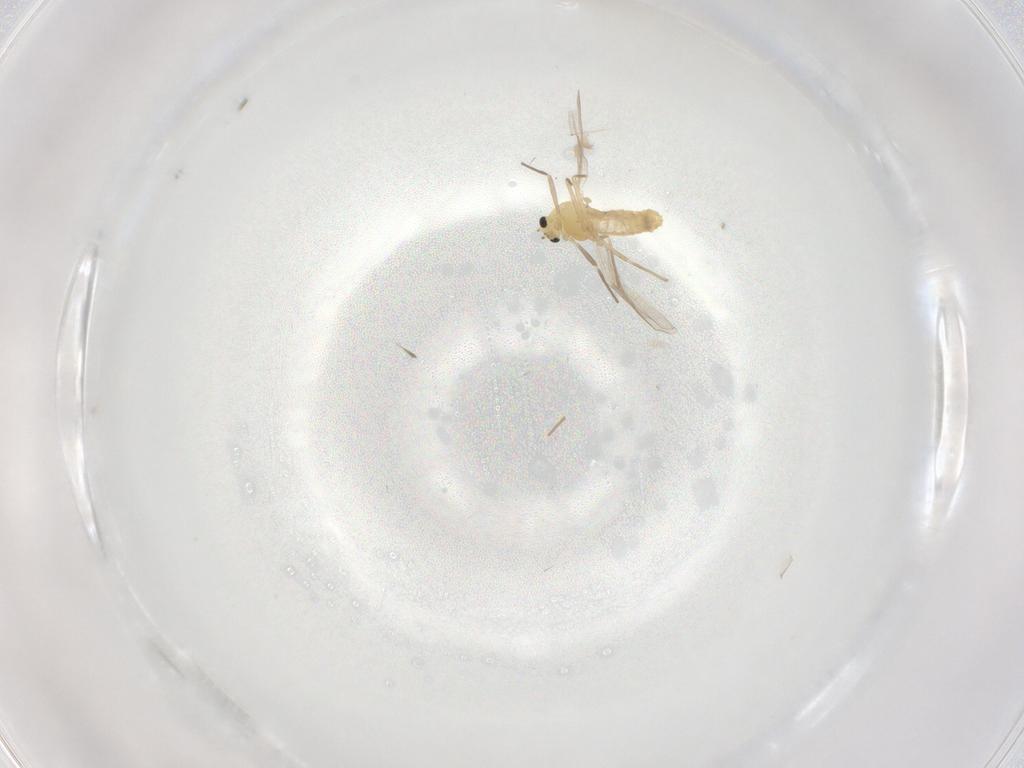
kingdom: Animalia
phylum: Arthropoda
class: Insecta
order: Diptera
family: Chironomidae
